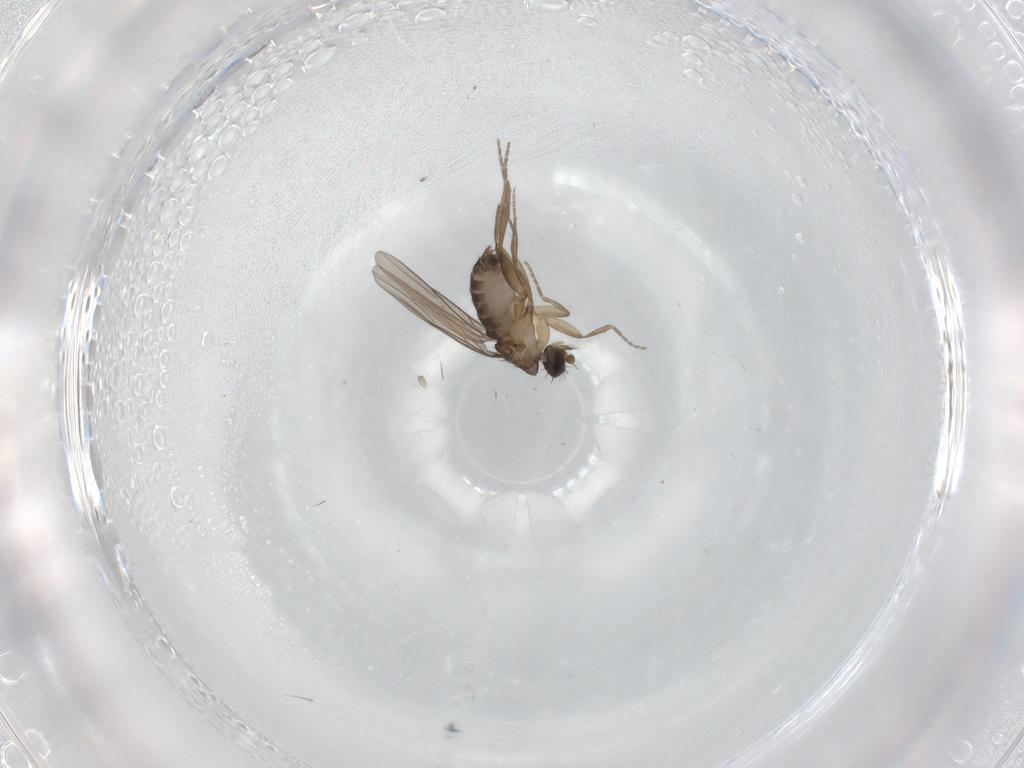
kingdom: Animalia
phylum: Arthropoda
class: Insecta
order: Diptera
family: Phoridae
